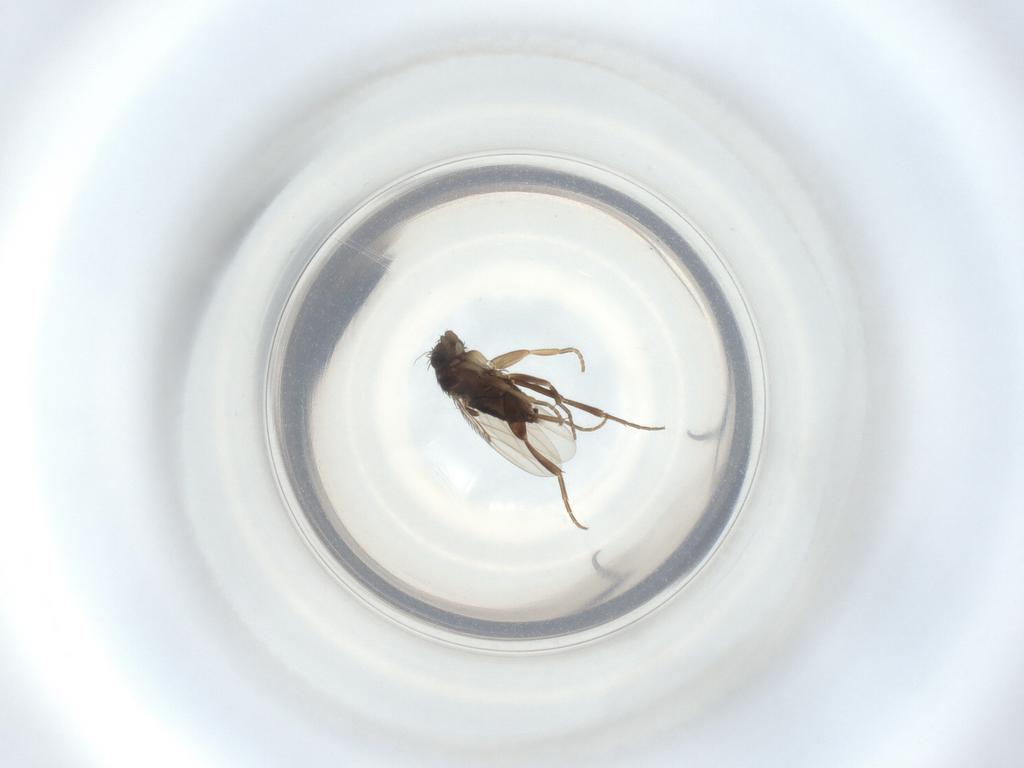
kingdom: Animalia
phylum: Arthropoda
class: Insecta
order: Diptera
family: Phoridae
